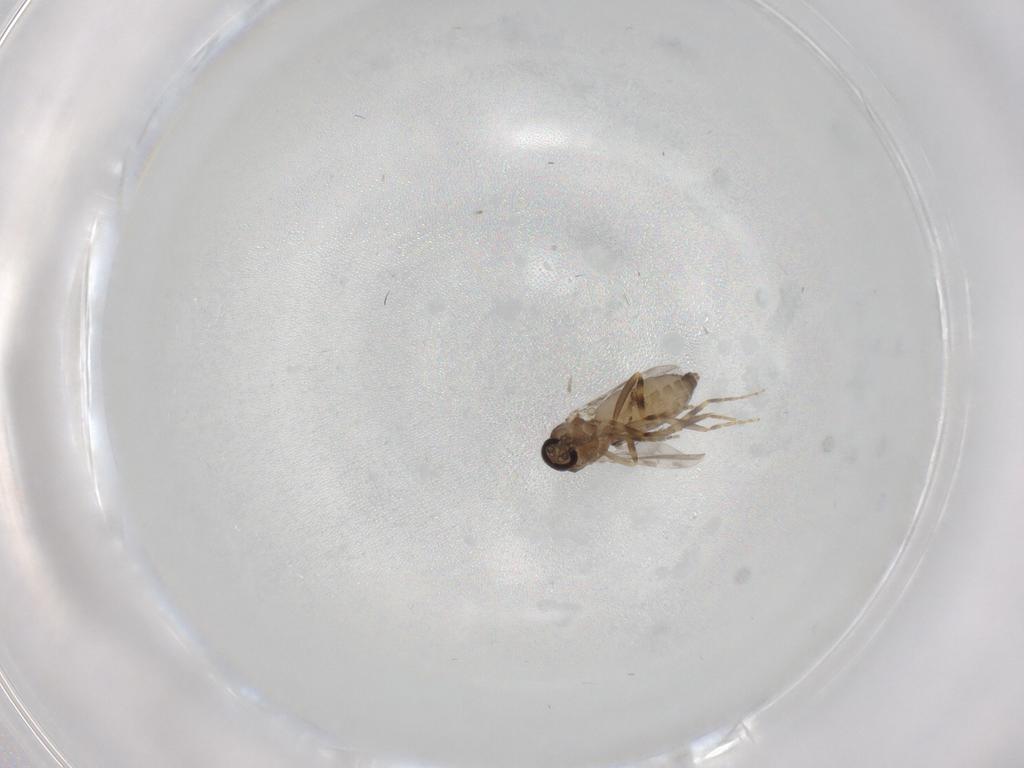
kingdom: Animalia
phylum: Arthropoda
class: Insecta
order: Diptera
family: Ceratopogonidae
